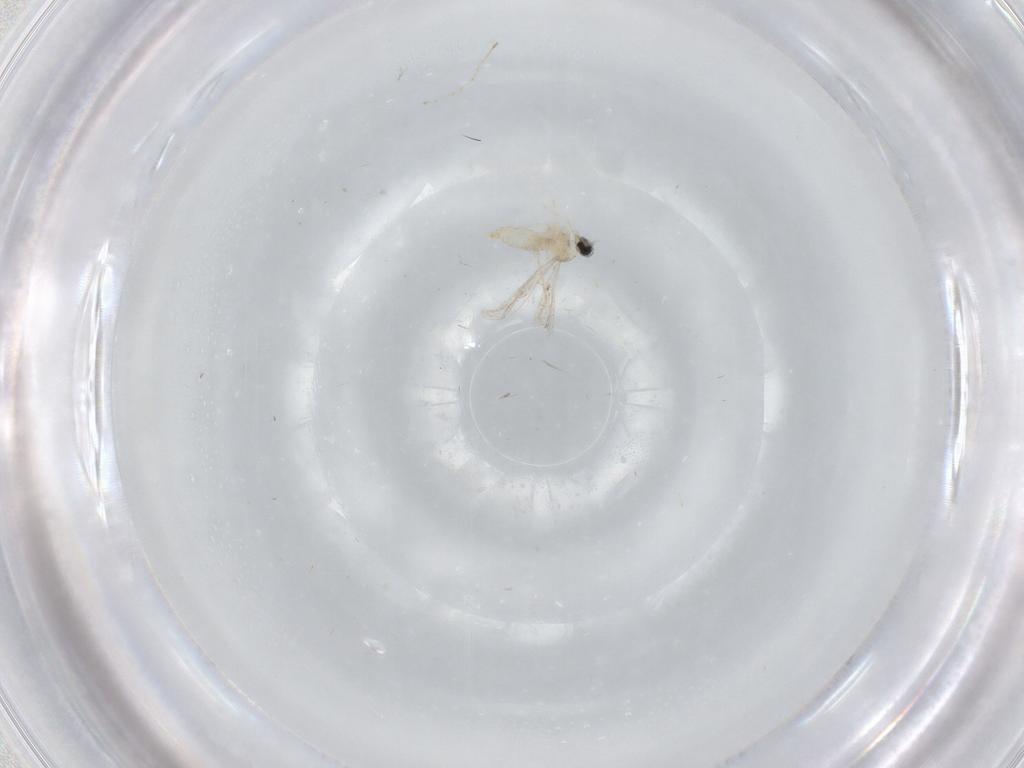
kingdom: Animalia
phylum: Arthropoda
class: Insecta
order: Diptera
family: Cecidomyiidae
